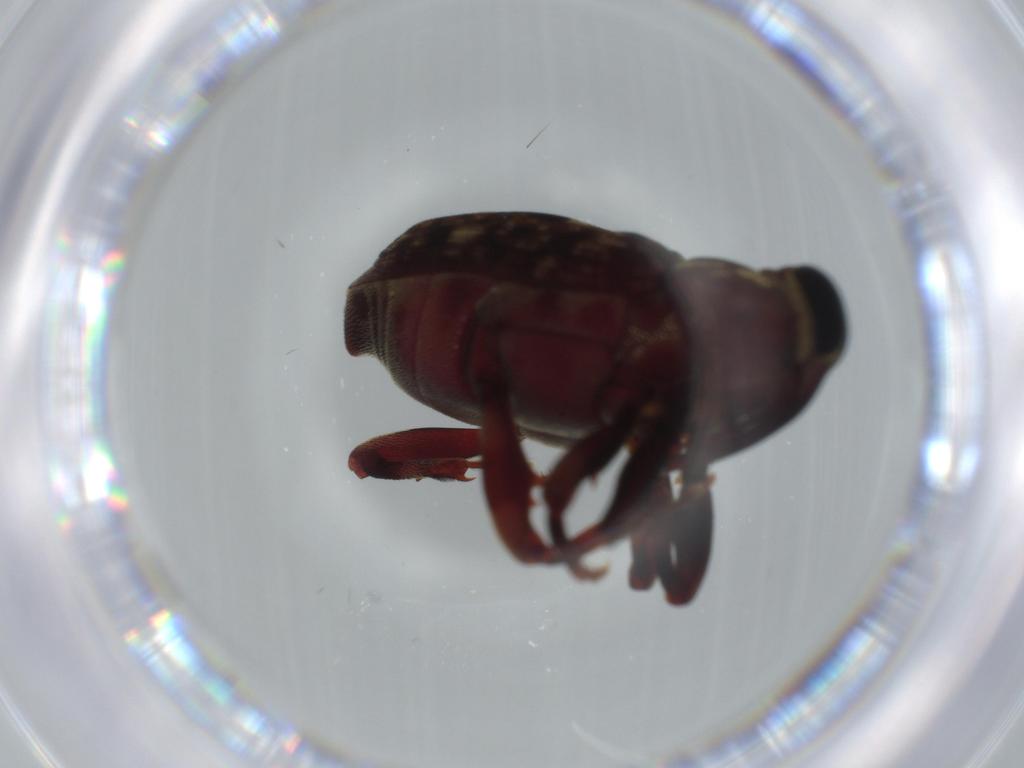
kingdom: Animalia
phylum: Arthropoda
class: Insecta
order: Coleoptera
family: Curculionidae
